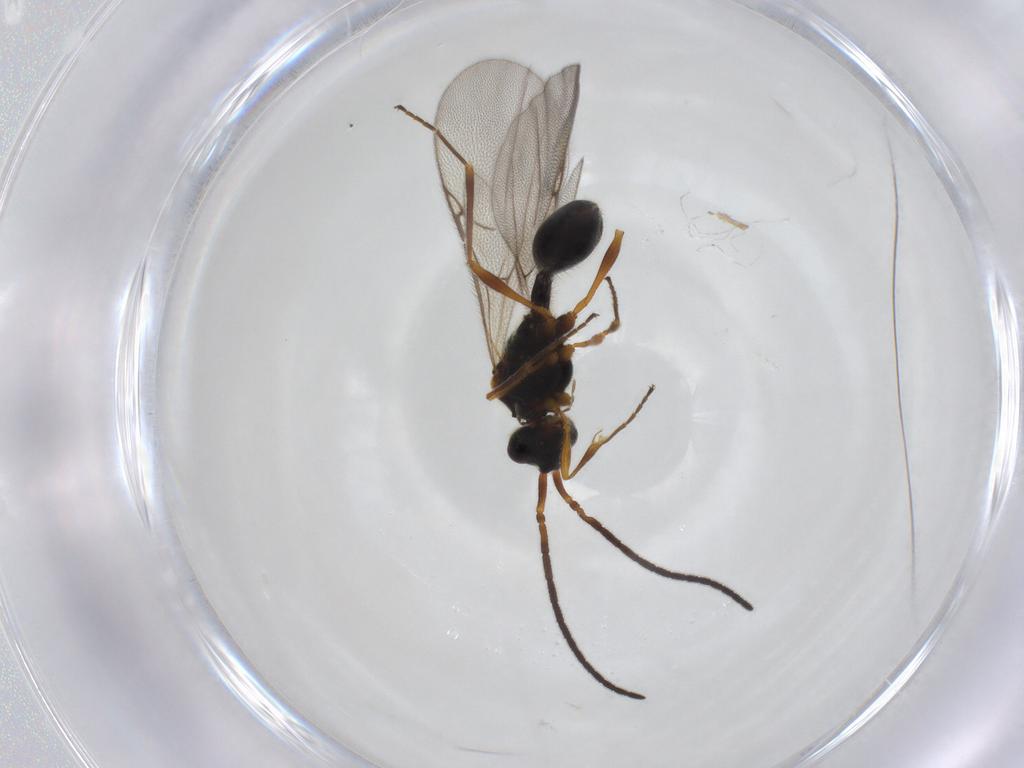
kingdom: Animalia
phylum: Arthropoda
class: Insecta
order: Hymenoptera
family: Diapriidae
